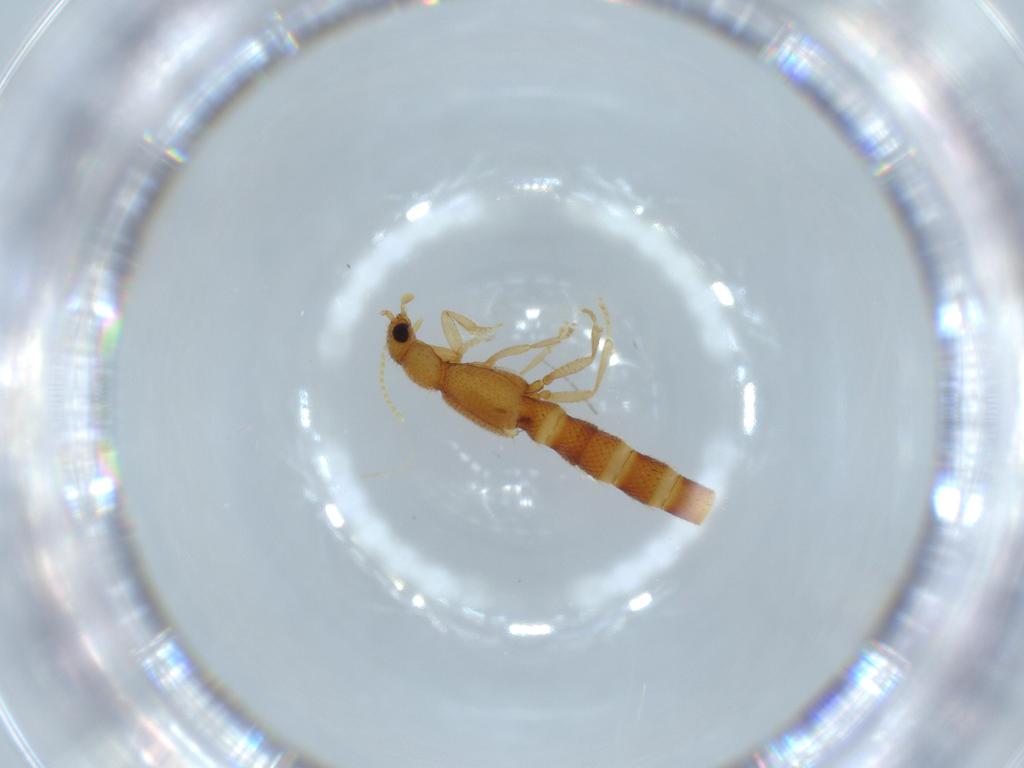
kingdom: Animalia
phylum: Arthropoda
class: Insecta
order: Coleoptera
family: Staphylinidae
